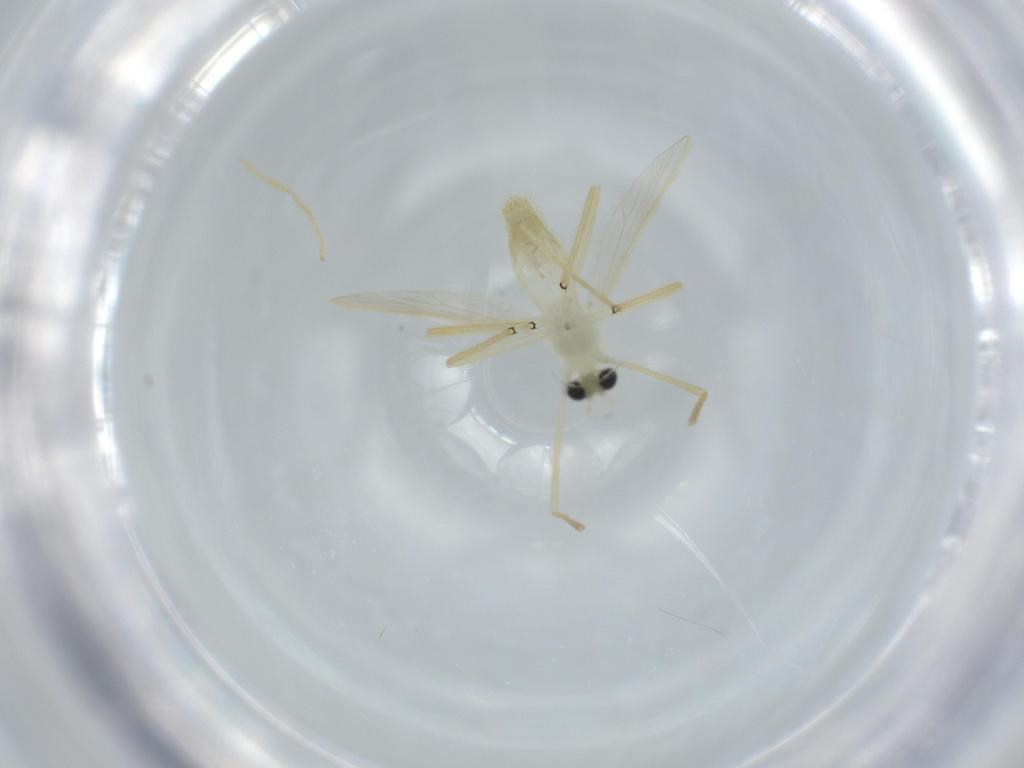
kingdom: Animalia
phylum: Arthropoda
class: Insecta
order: Diptera
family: Chironomidae
